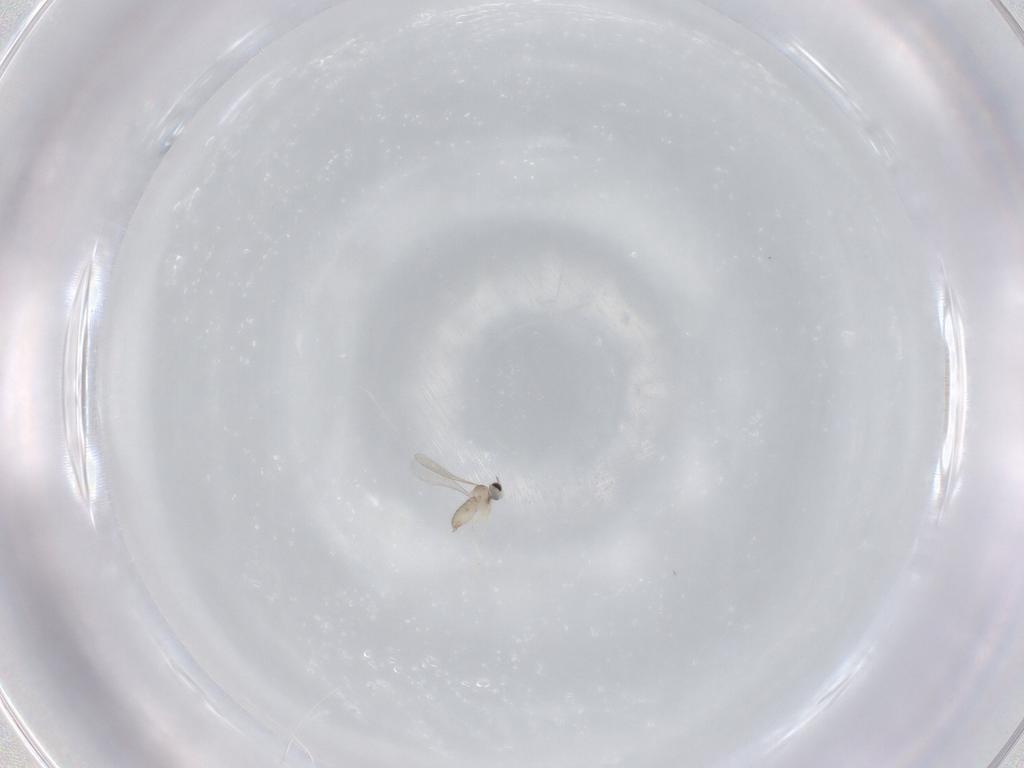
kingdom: Animalia
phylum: Arthropoda
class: Insecta
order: Diptera
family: Cecidomyiidae
